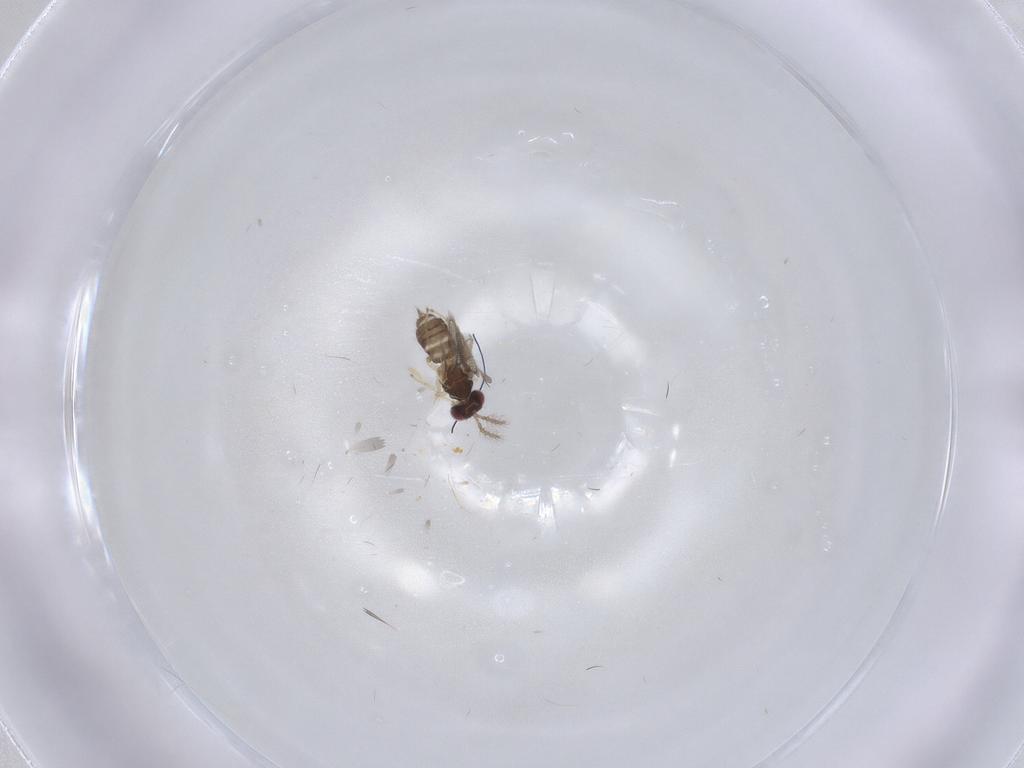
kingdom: Animalia
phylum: Arthropoda
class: Insecta
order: Hymenoptera
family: Eulophidae
